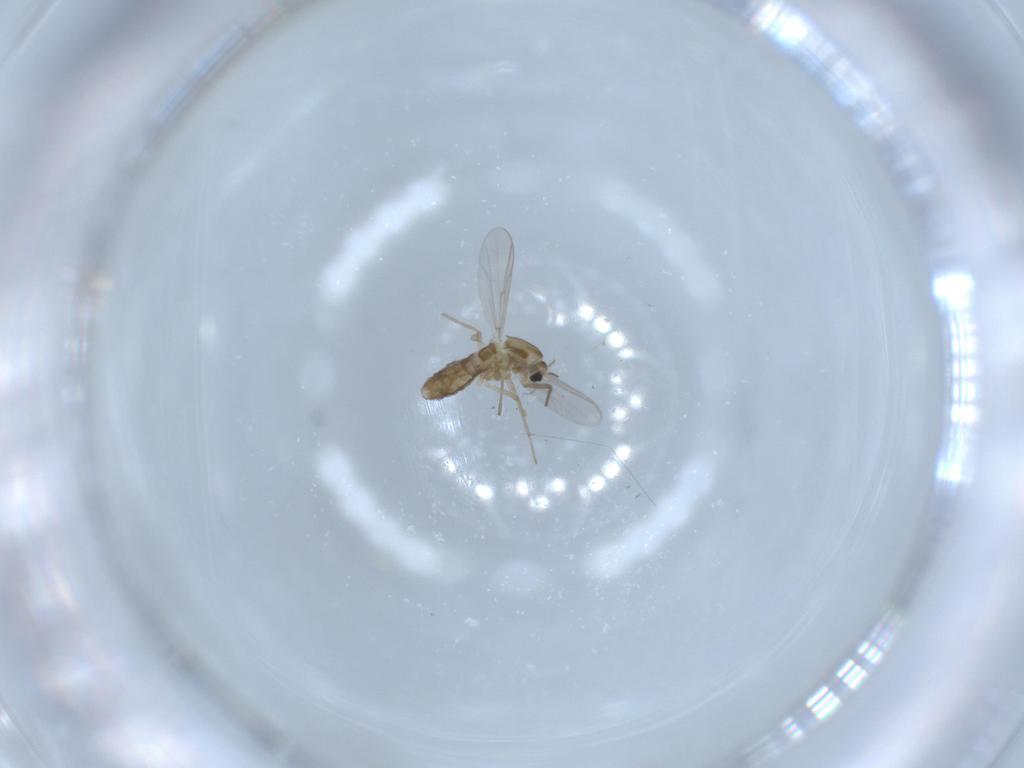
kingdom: Animalia
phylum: Arthropoda
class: Insecta
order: Diptera
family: Chironomidae
